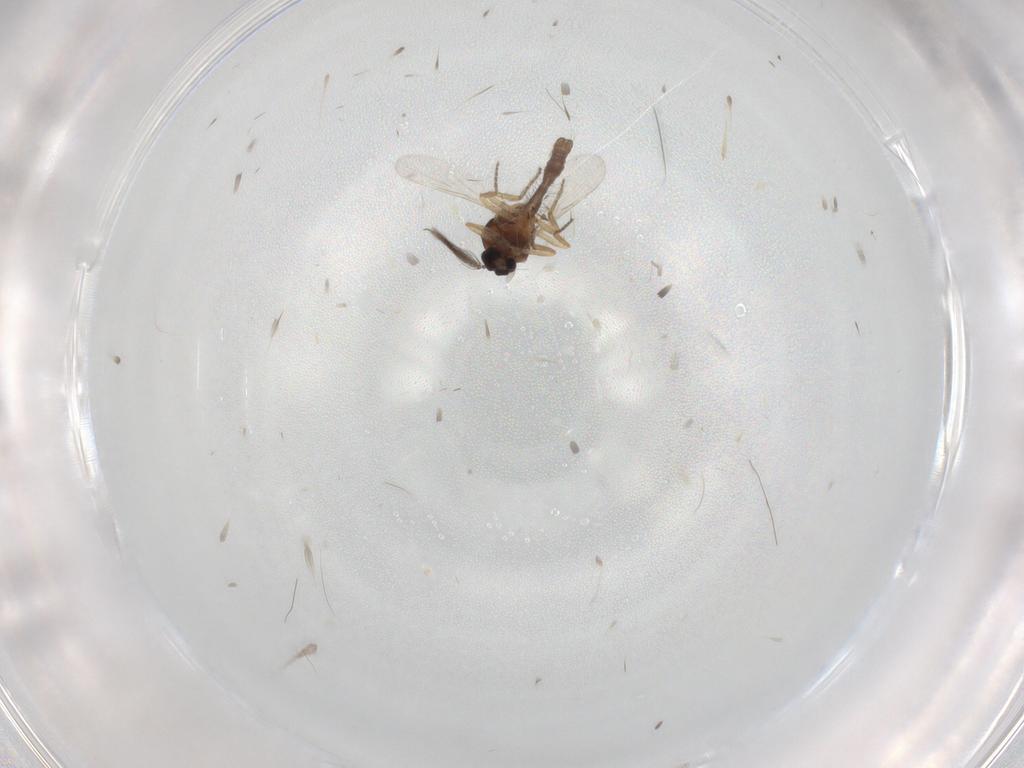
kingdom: Animalia
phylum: Arthropoda
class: Insecta
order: Diptera
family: Ceratopogonidae
